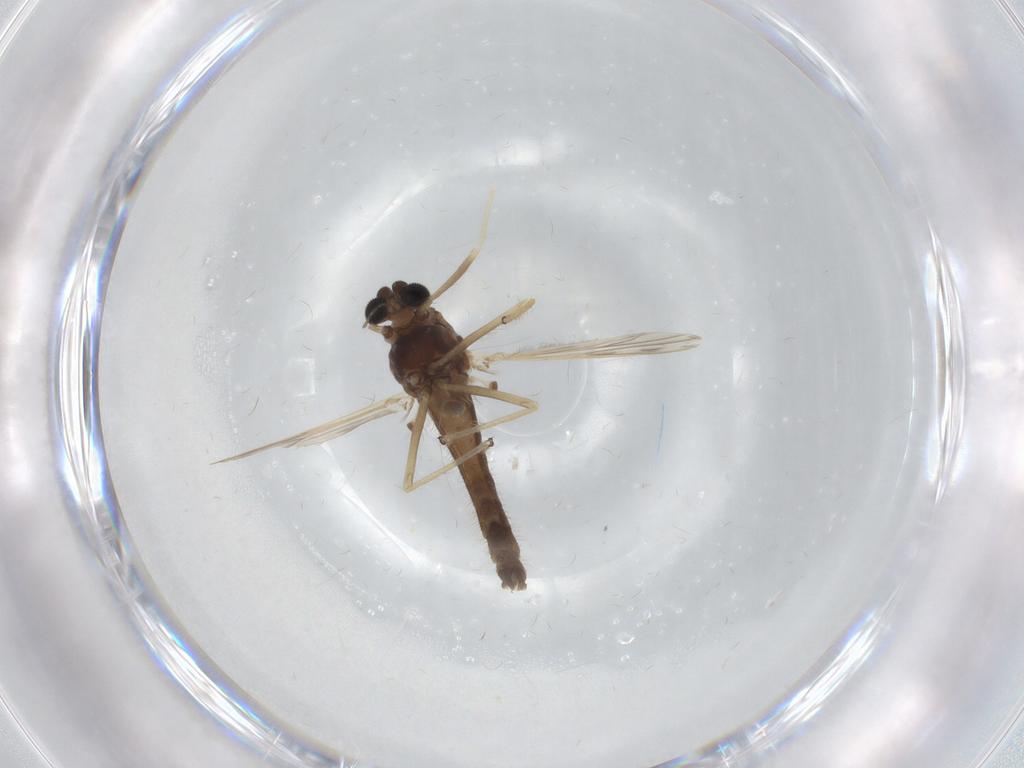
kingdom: Animalia
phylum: Arthropoda
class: Insecta
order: Diptera
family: Chironomidae
